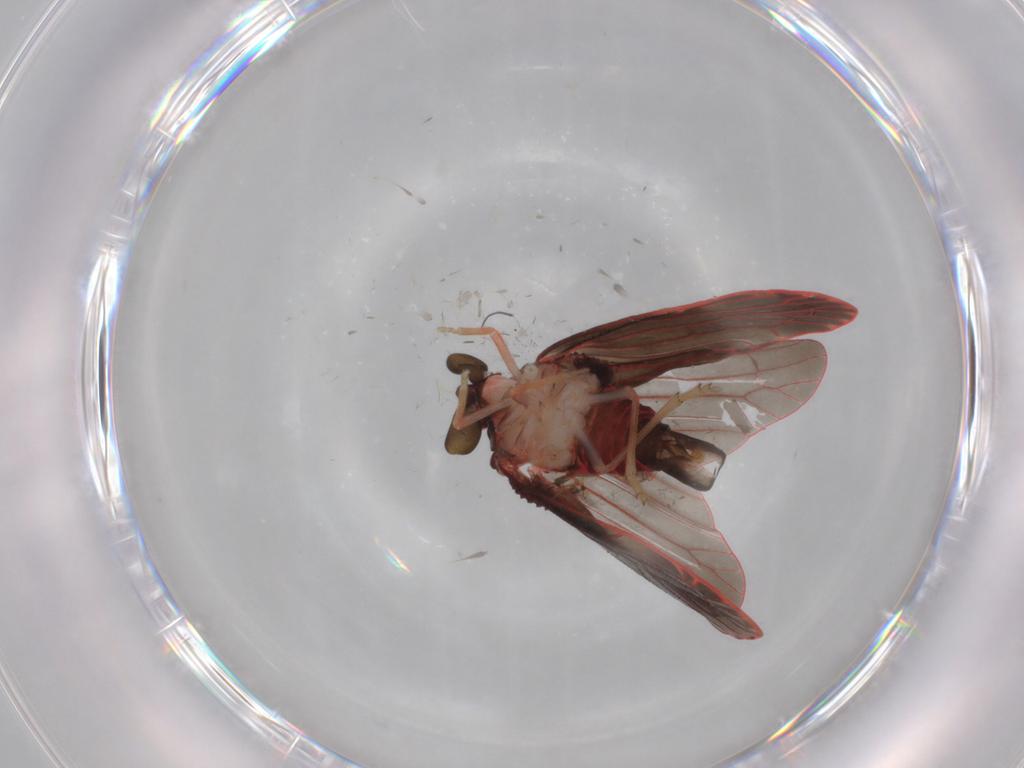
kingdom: Animalia
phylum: Arthropoda
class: Insecta
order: Hemiptera
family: Derbidae
